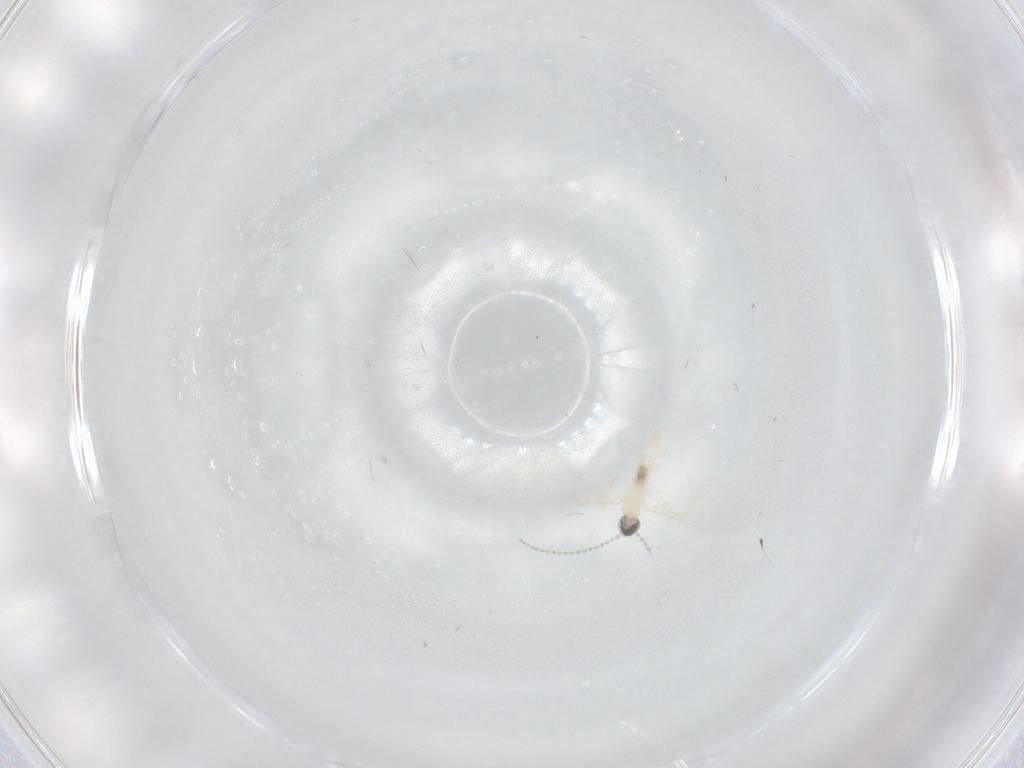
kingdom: Animalia
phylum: Arthropoda
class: Insecta
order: Diptera
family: Cecidomyiidae
